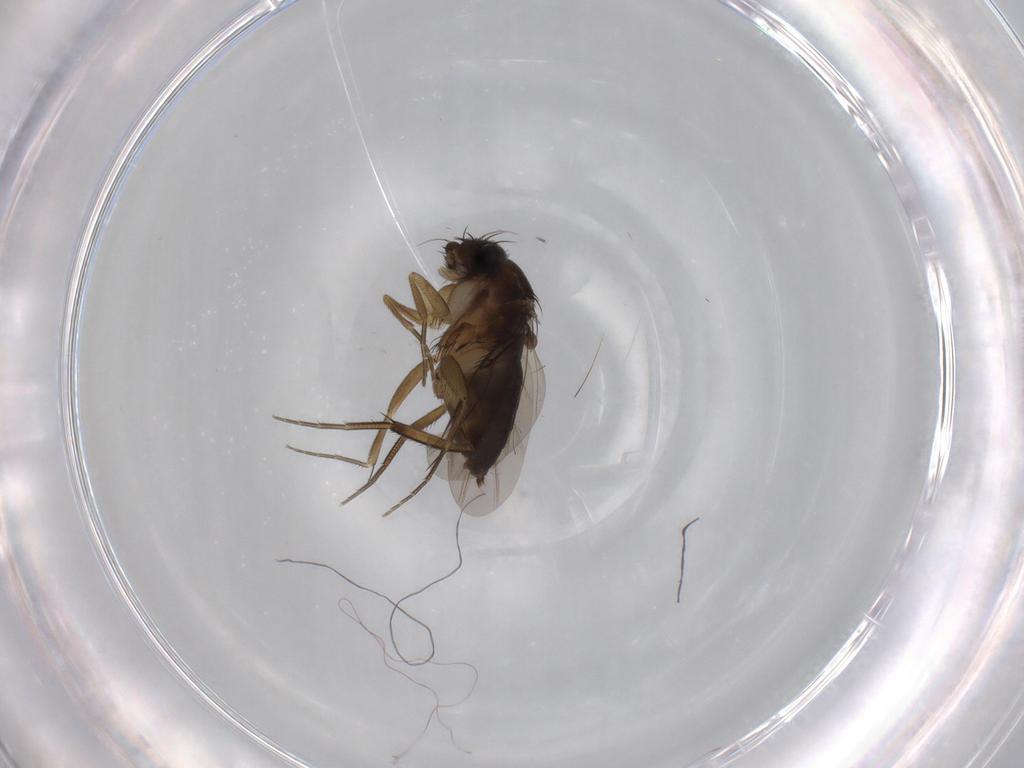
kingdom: Animalia
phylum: Arthropoda
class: Insecta
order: Diptera
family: Phoridae
